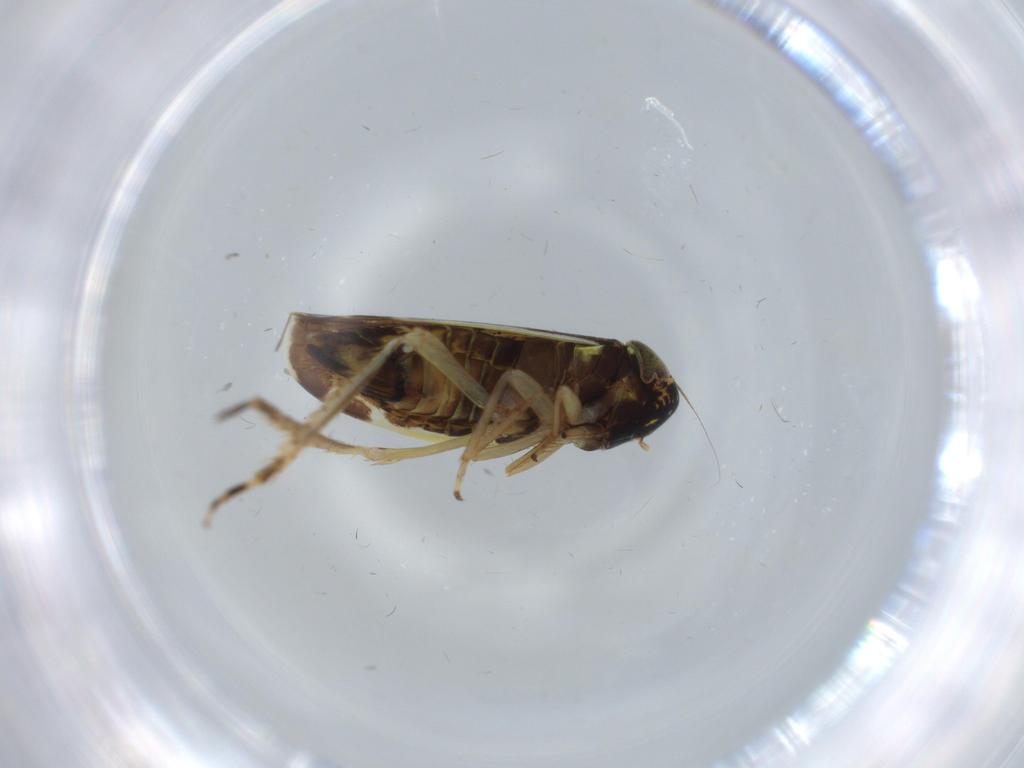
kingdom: Animalia
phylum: Arthropoda
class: Insecta
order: Hemiptera
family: Cicadellidae
